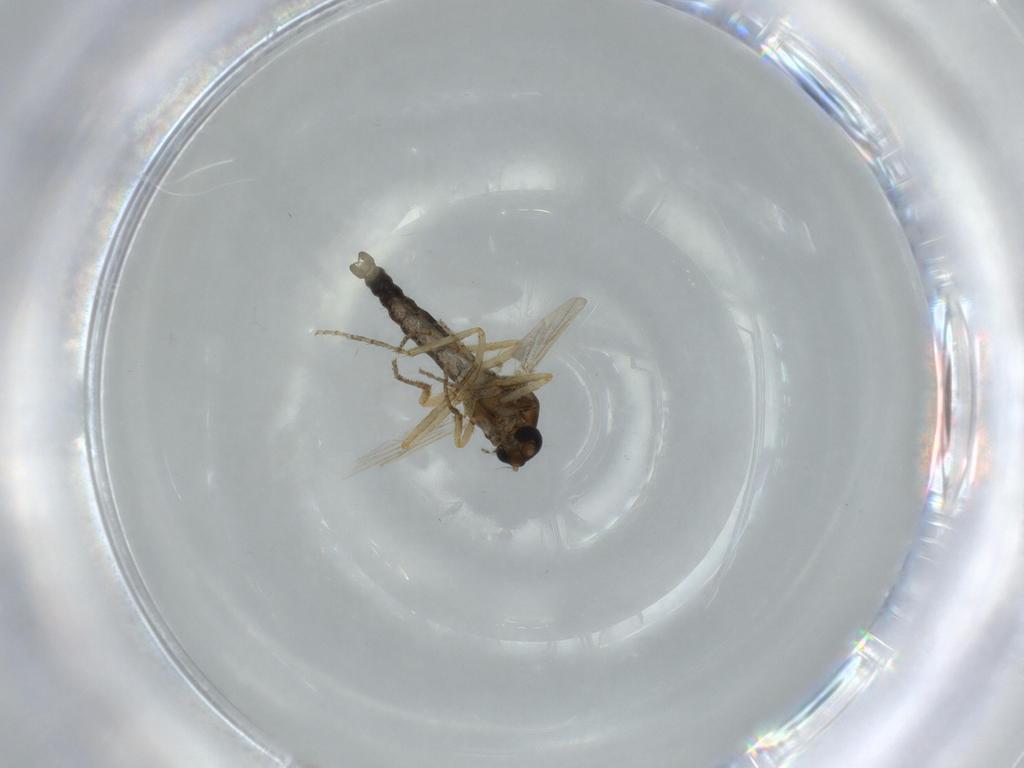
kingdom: Animalia
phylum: Arthropoda
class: Insecta
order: Diptera
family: Ceratopogonidae
